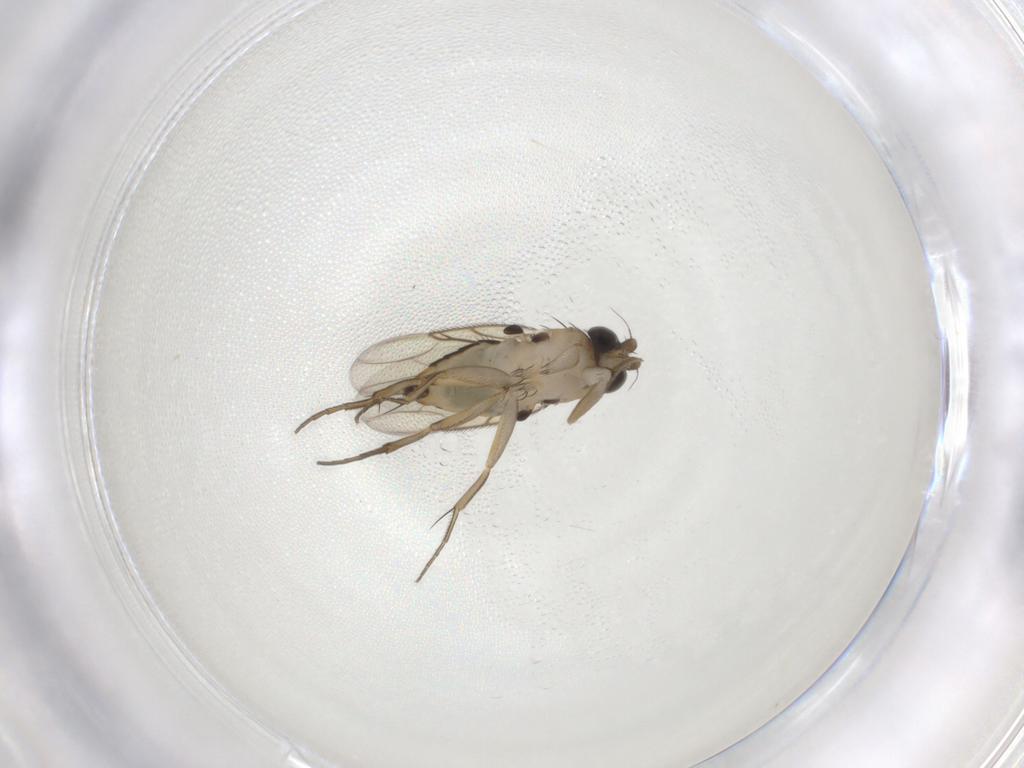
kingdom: Animalia
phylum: Arthropoda
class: Insecta
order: Diptera
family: Phoridae
